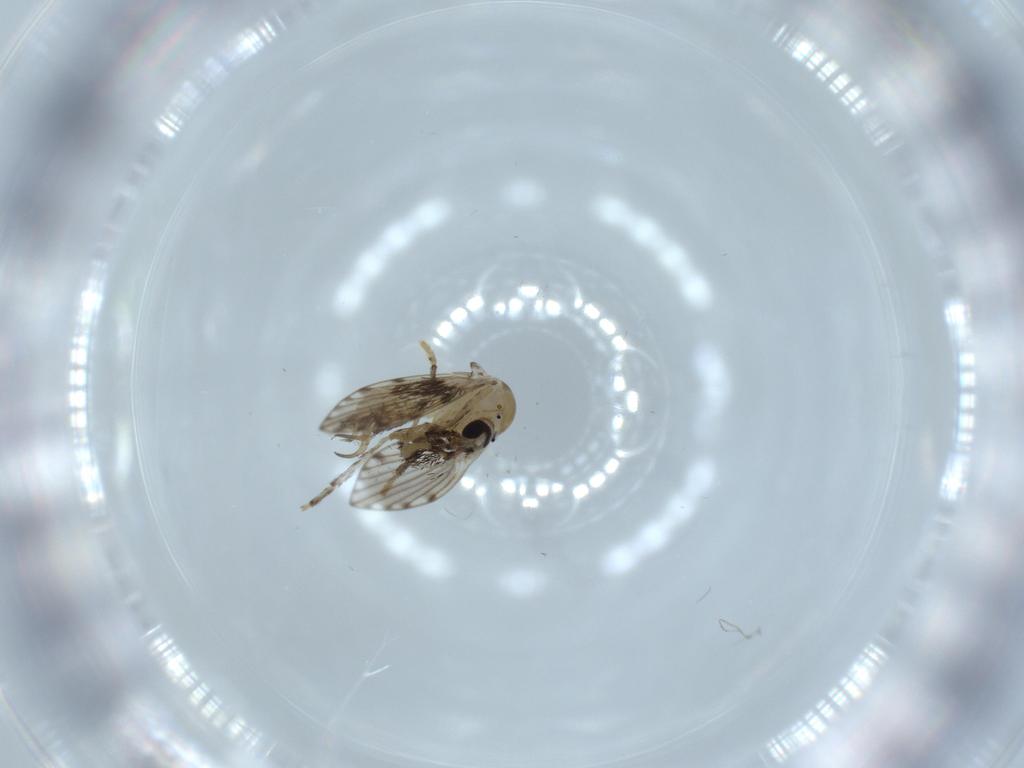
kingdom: Animalia
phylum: Arthropoda
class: Insecta
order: Diptera
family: Psychodidae
